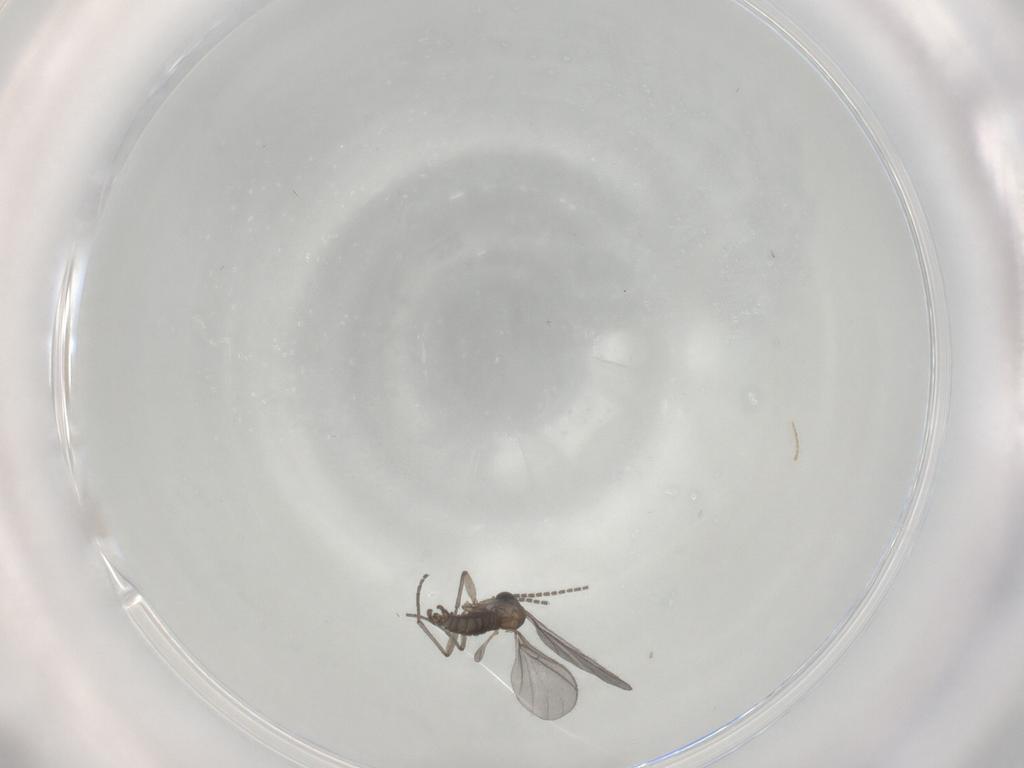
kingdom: Animalia
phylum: Arthropoda
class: Insecta
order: Diptera
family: Sciaridae
